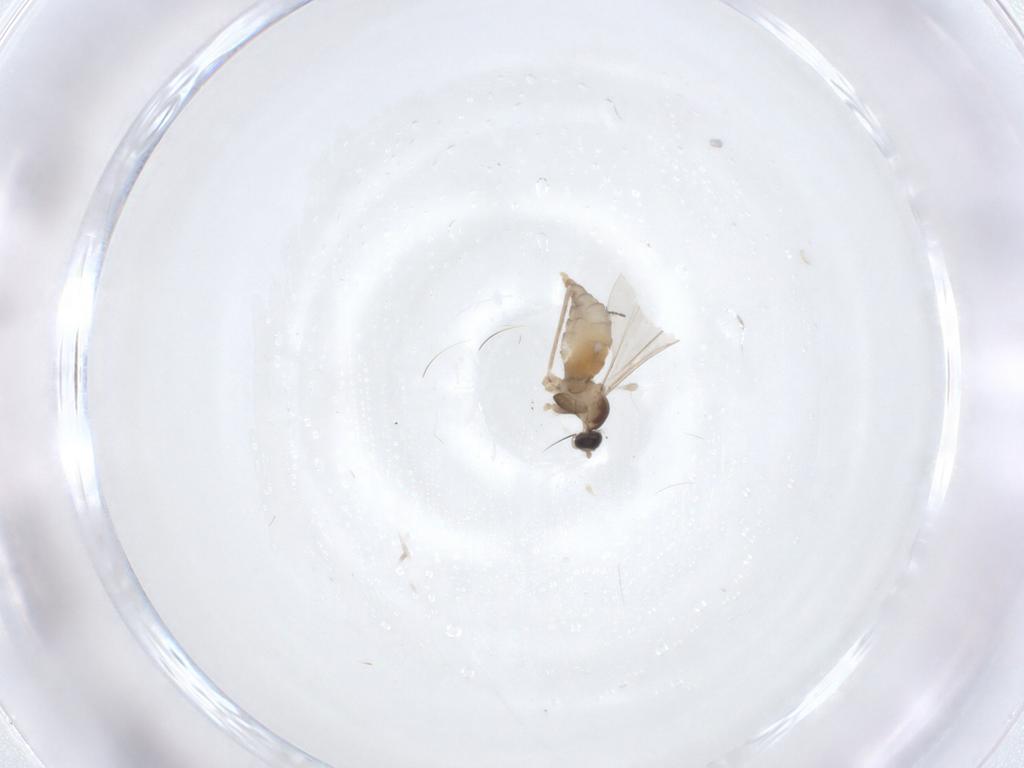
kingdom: Animalia
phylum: Arthropoda
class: Insecta
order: Diptera
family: Cecidomyiidae
